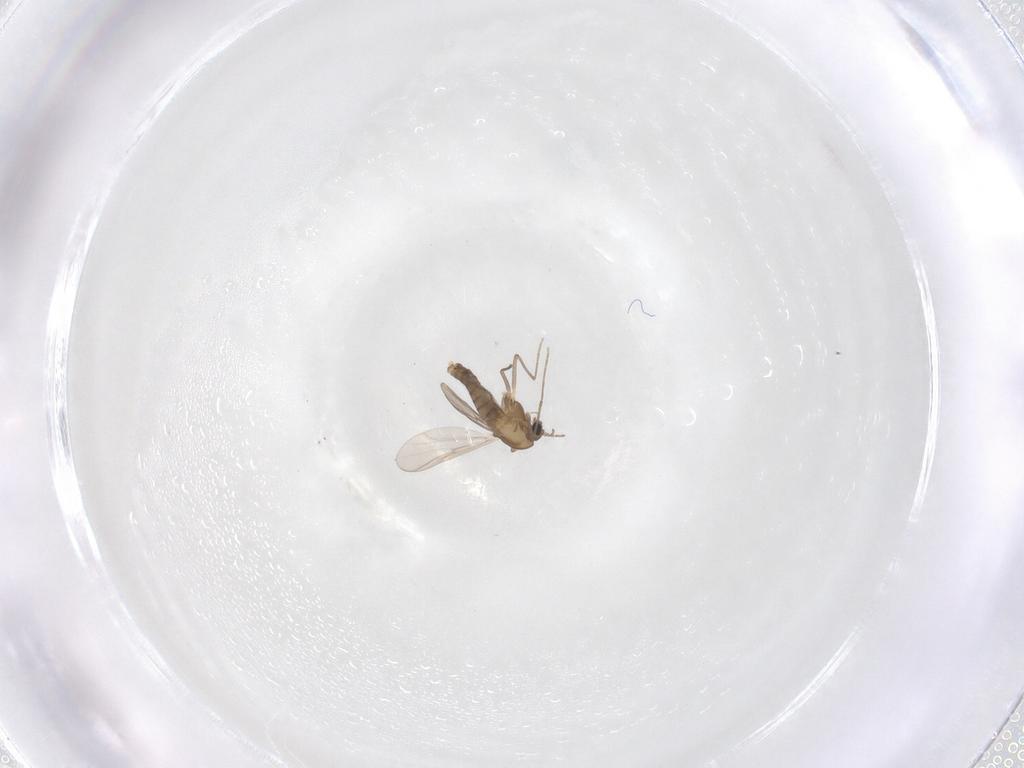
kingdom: Animalia
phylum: Arthropoda
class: Insecta
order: Diptera
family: Chironomidae
